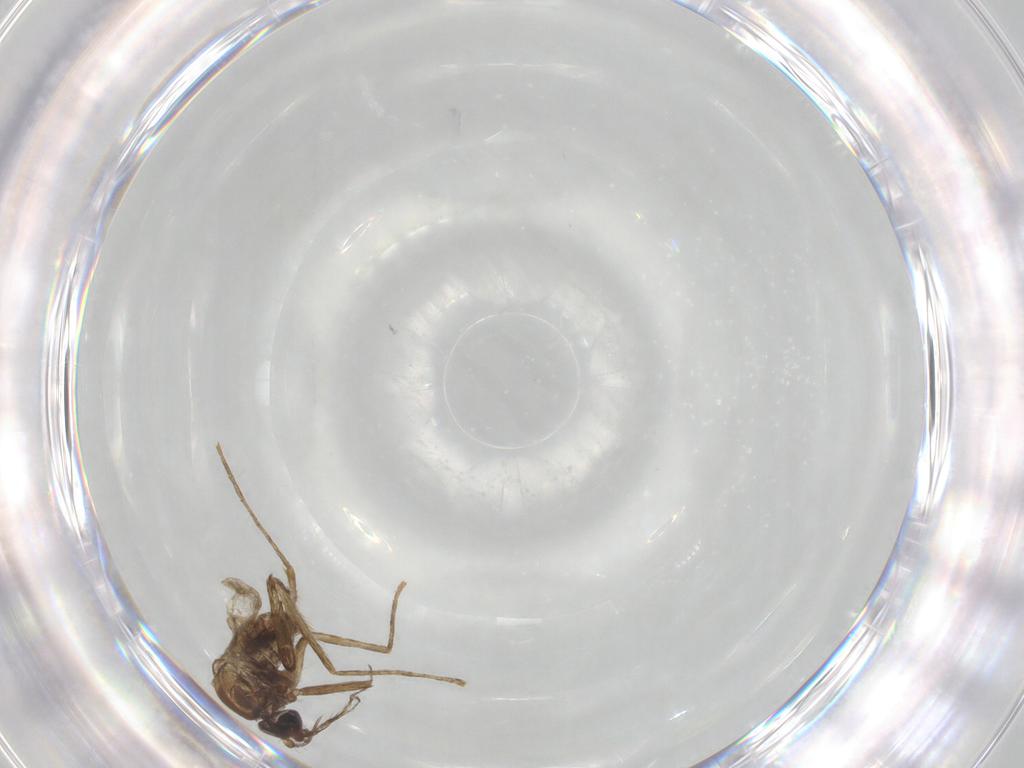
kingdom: Animalia
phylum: Arthropoda
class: Insecta
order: Diptera
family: Corethrellidae
